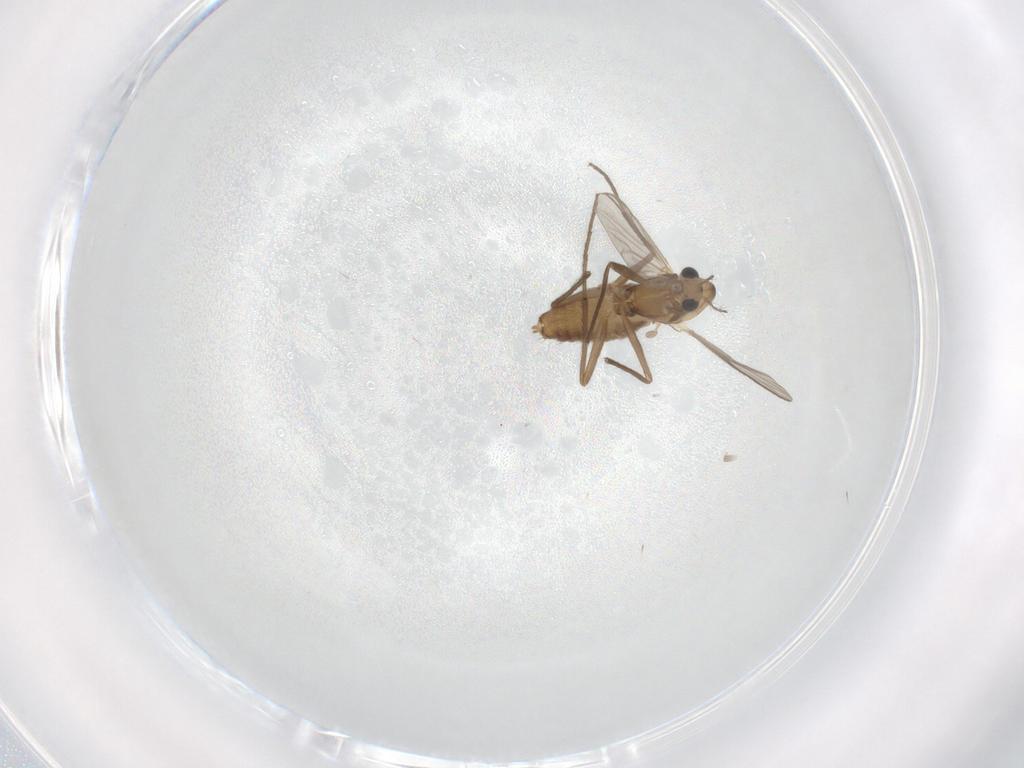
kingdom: Animalia
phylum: Arthropoda
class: Insecta
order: Diptera
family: Chironomidae
